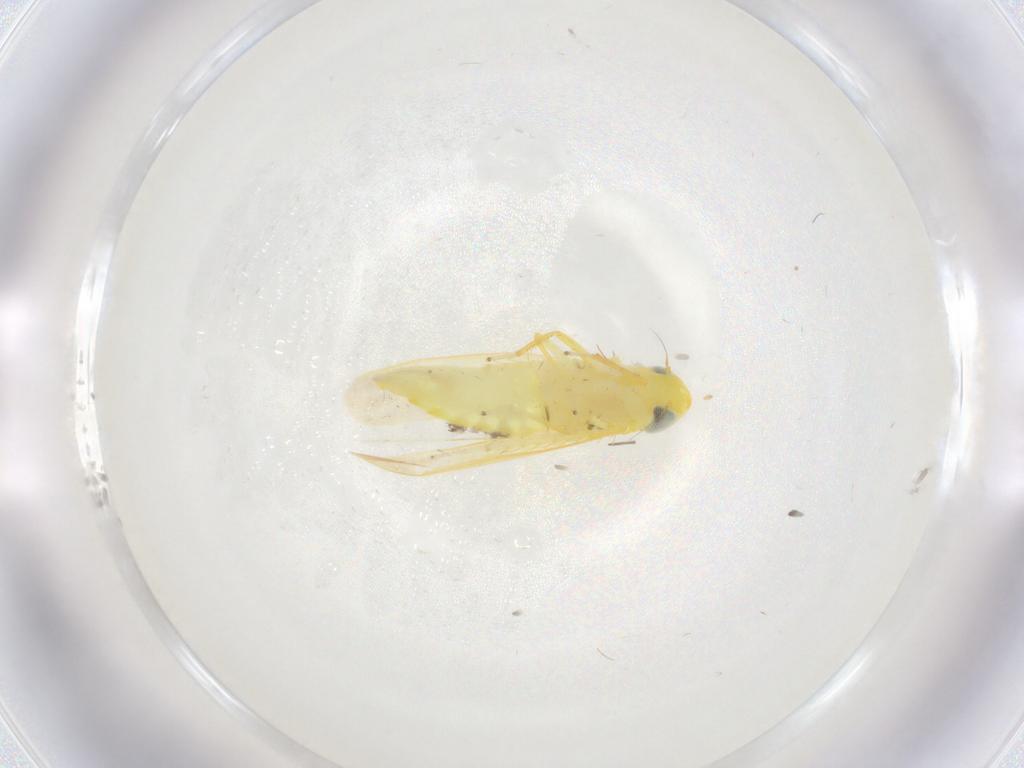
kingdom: Animalia
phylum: Arthropoda
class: Insecta
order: Hemiptera
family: Cicadellidae
